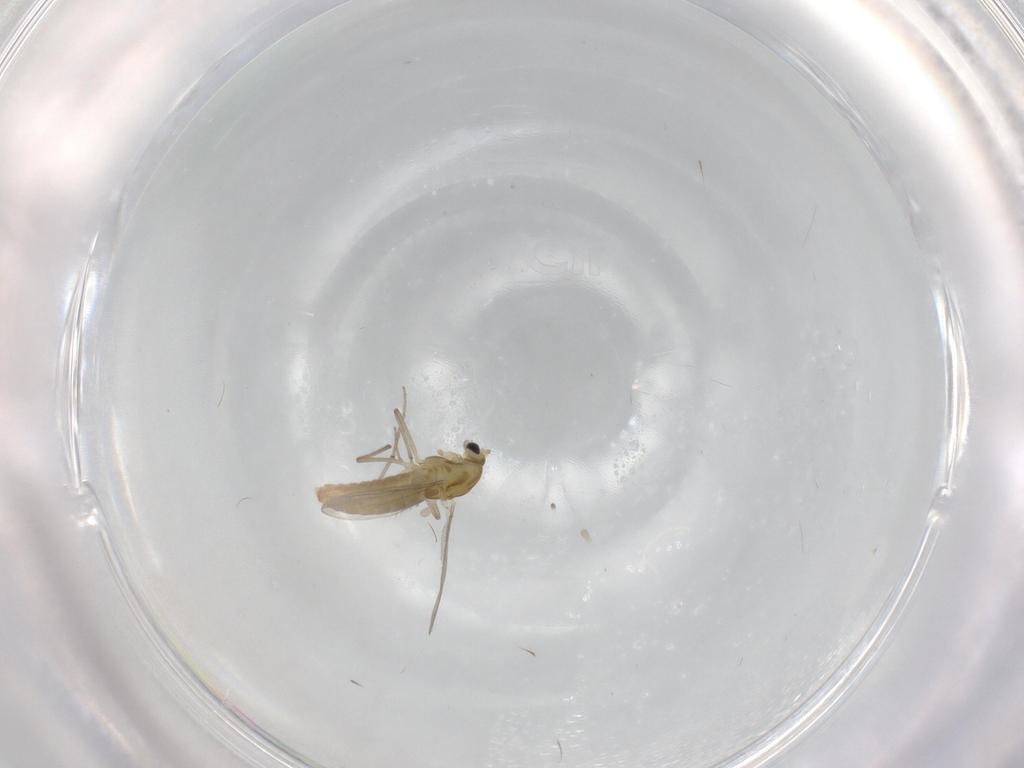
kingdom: Animalia
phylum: Arthropoda
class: Insecta
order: Diptera
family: Chironomidae
